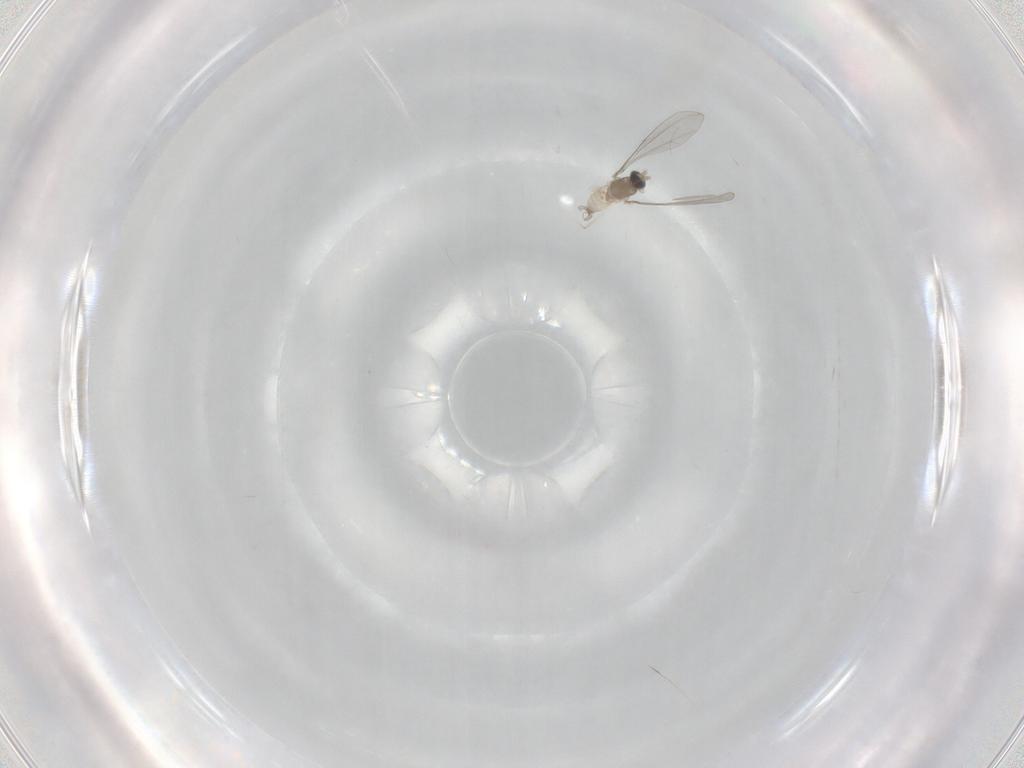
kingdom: Animalia
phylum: Arthropoda
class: Insecta
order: Diptera
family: Cecidomyiidae
